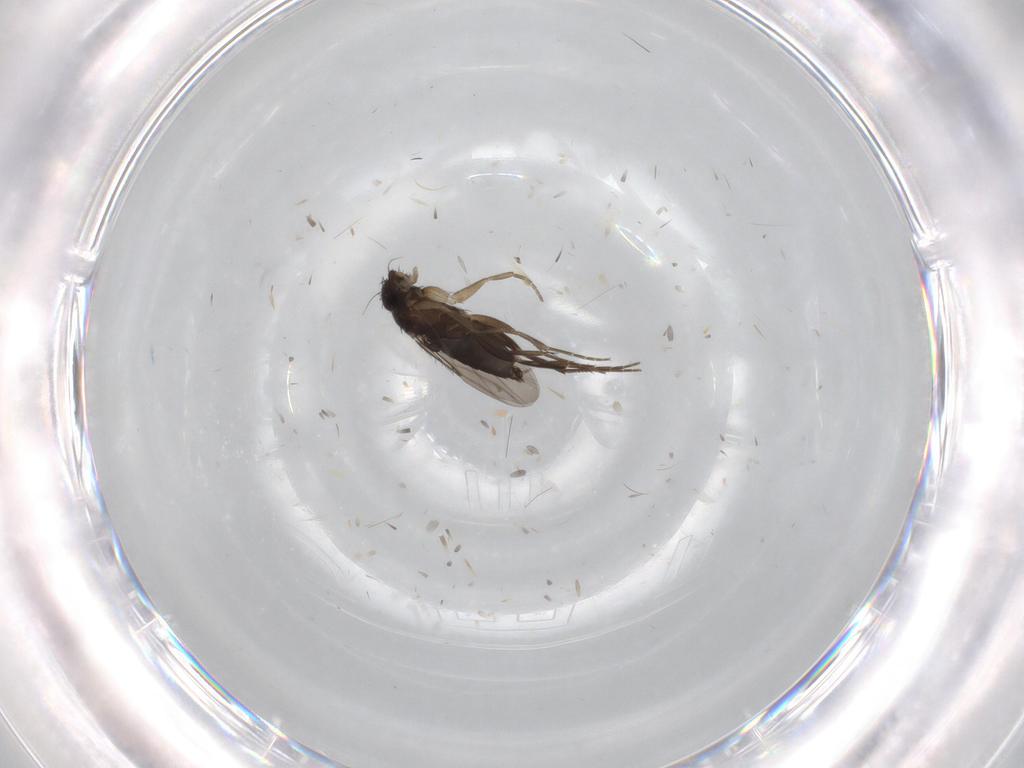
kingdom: Animalia
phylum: Arthropoda
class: Insecta
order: Diptera
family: Phoridae
